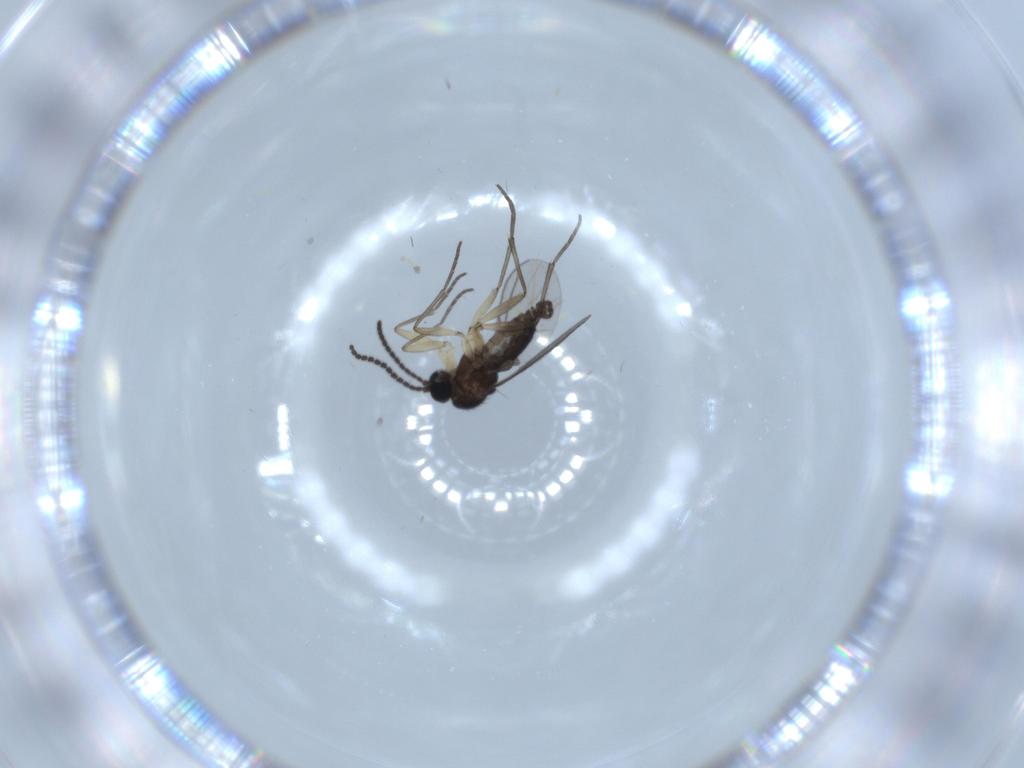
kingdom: Animalia
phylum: Arthropoda
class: Insecta
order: Diptera
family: Sciaridae
